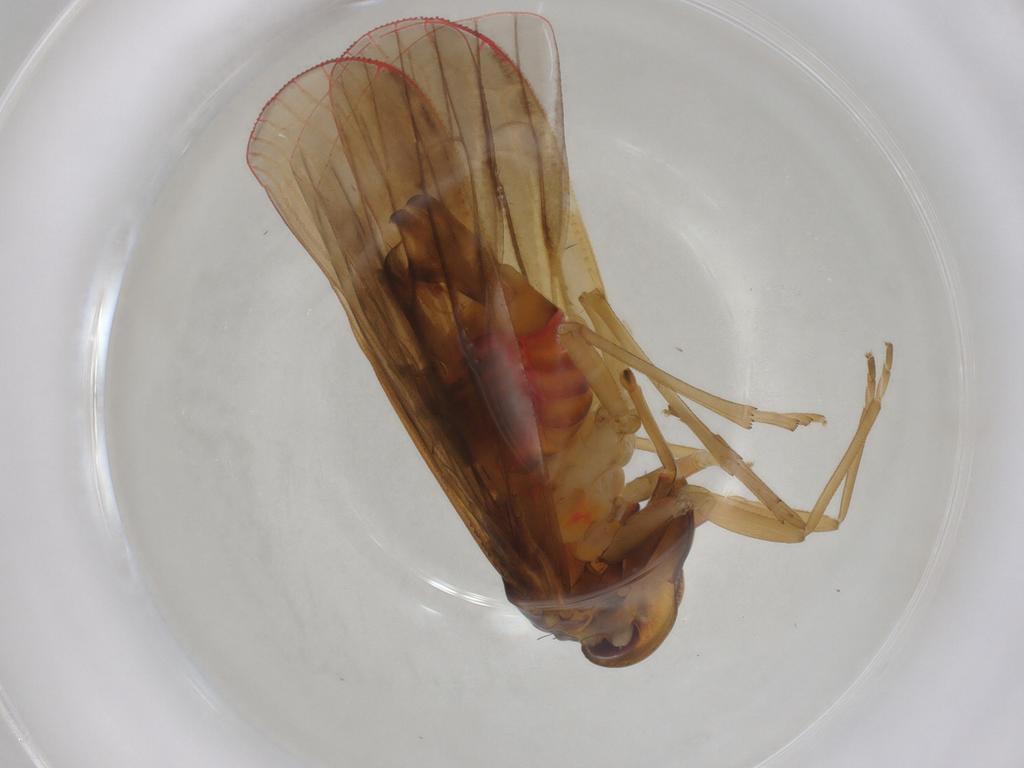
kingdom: Animalia
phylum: Arthropoda
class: Insecta
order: Hemiptera
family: Derbidae
